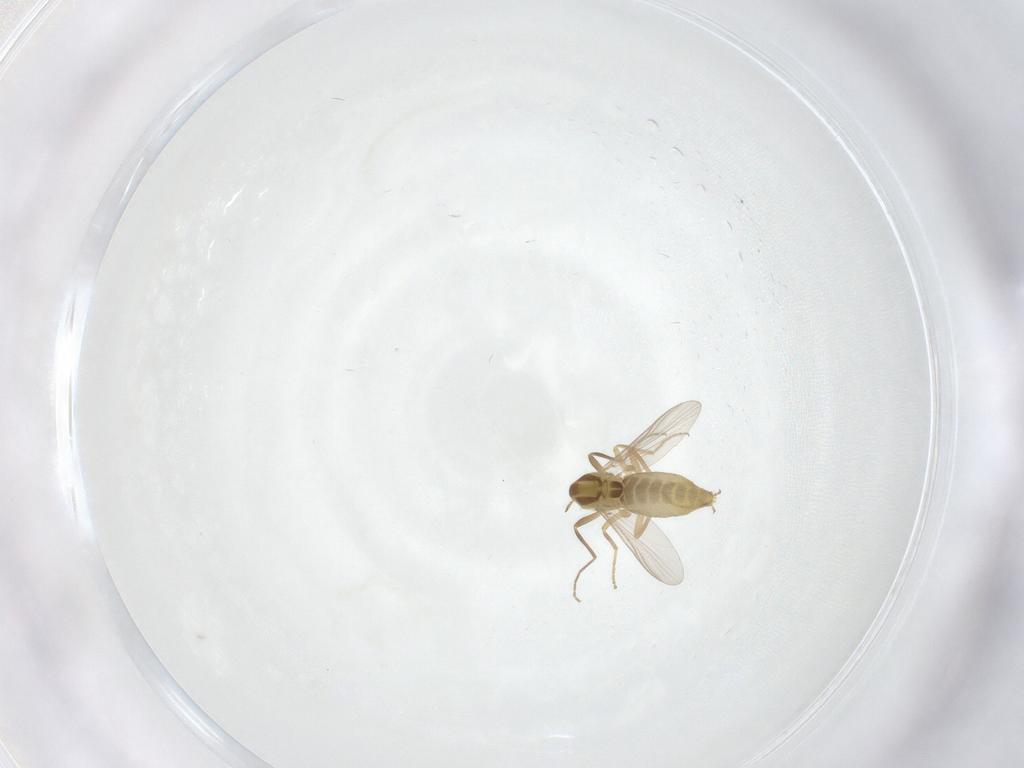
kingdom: Animalia
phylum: Arthropoda
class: Insecta
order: Diptera
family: Chironomidae
